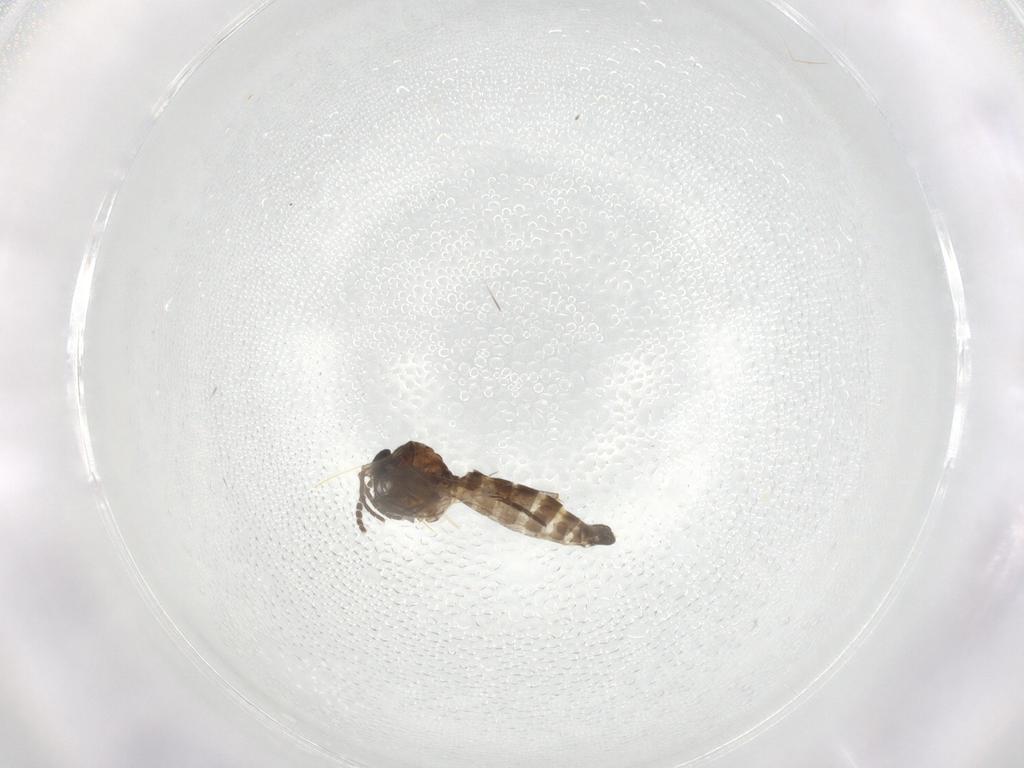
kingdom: Animalia
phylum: Arthropoda
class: Insecta
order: Diptera
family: Sciaridae
